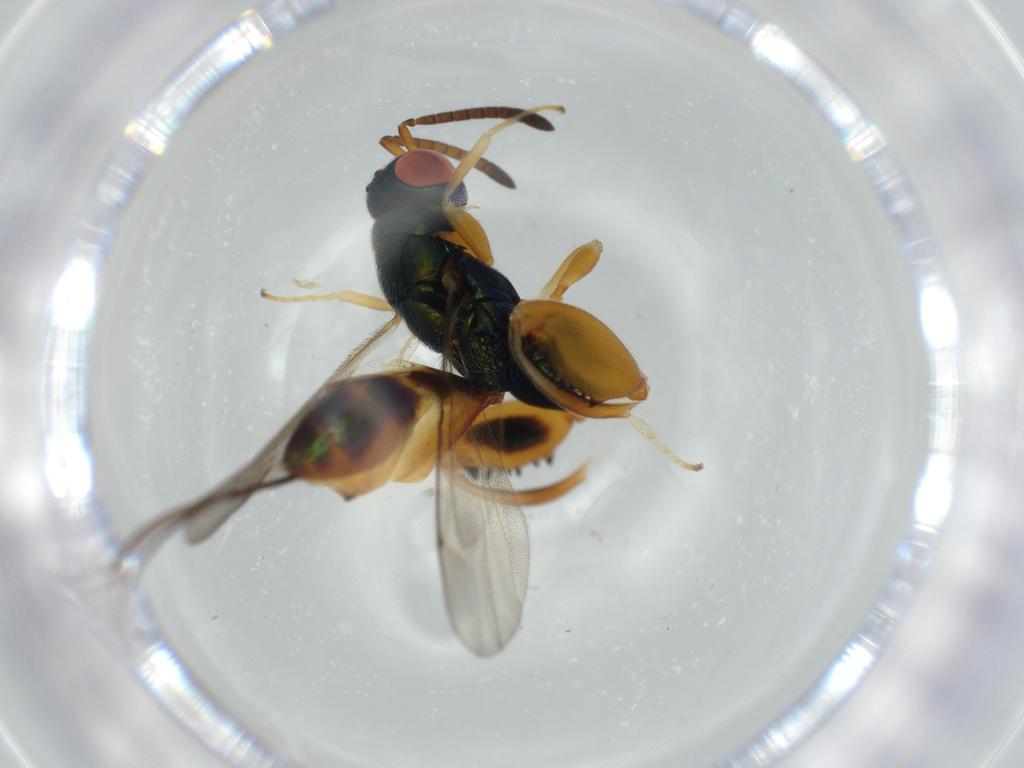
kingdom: Animalia
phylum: Arthropoda
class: Insecta
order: Hymenoptera
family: Torymidae
